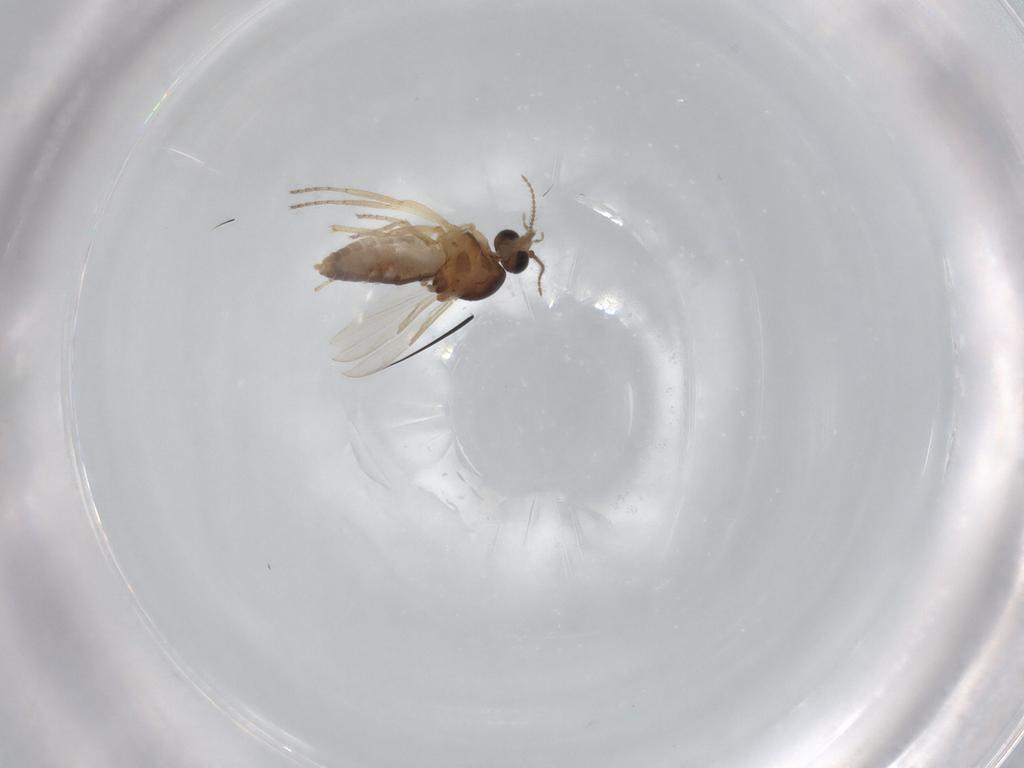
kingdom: Animalia
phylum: Arthropoda
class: Insecta
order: Diptera
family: Ceratopogonidae
